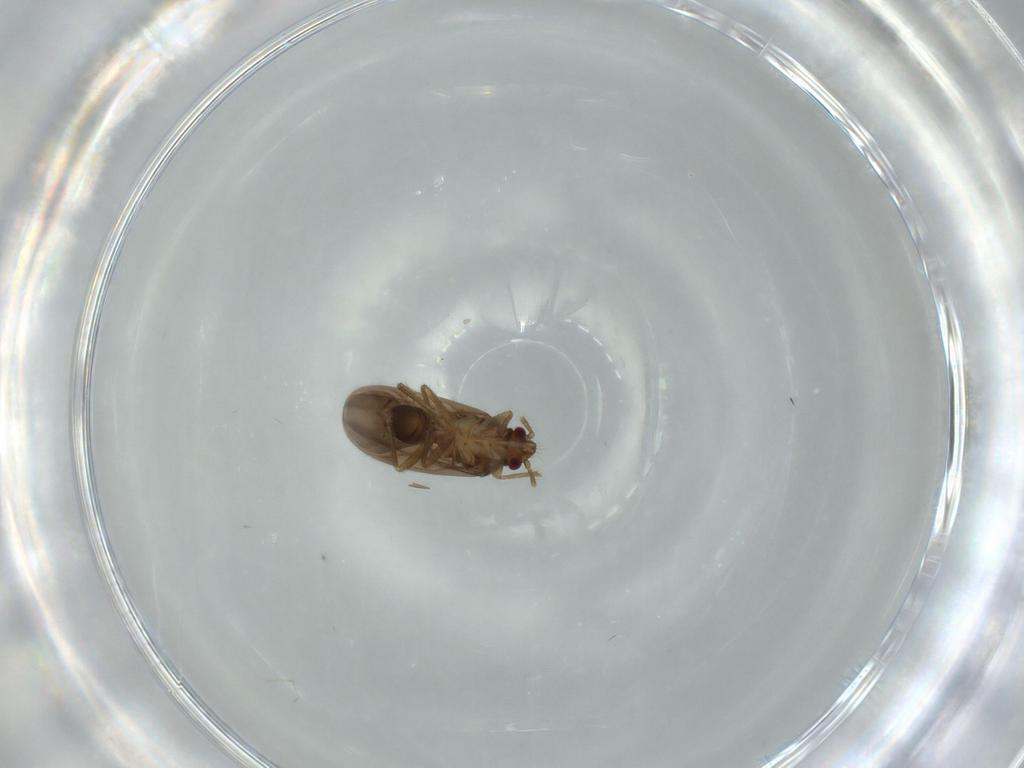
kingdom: Animalia
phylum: Arthropoda
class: Insecta
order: Hemiptera
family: Ceratocombidae
